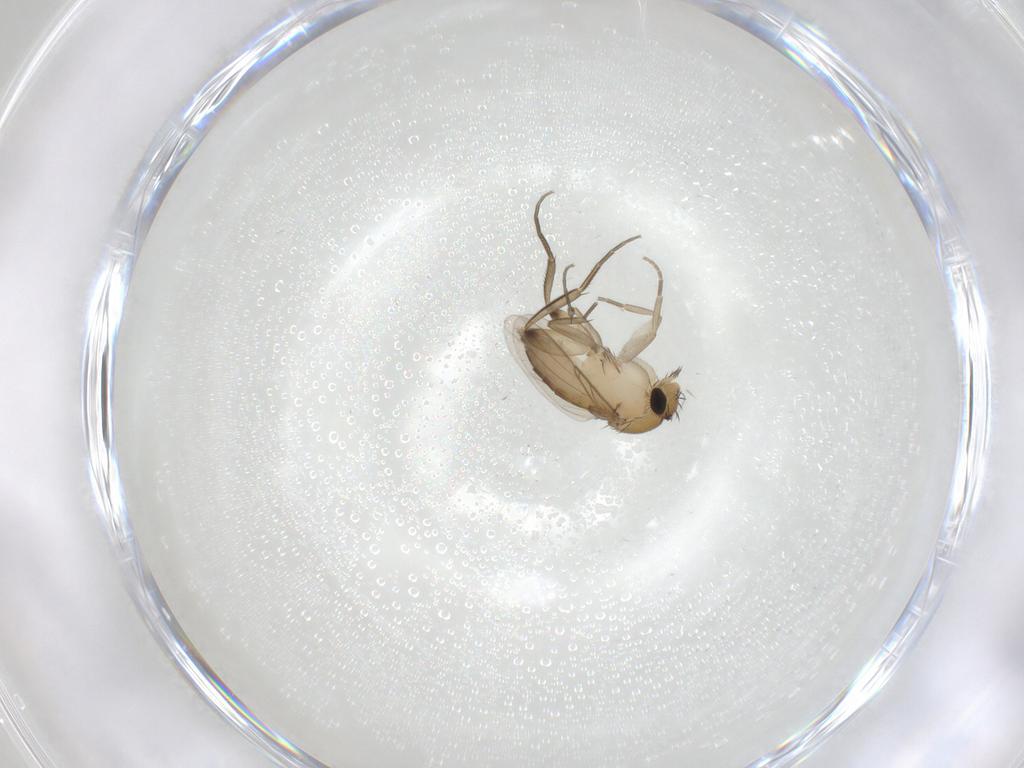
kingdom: Animalia
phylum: Arthropoda
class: Insecta
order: Diptera
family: Phoridae
